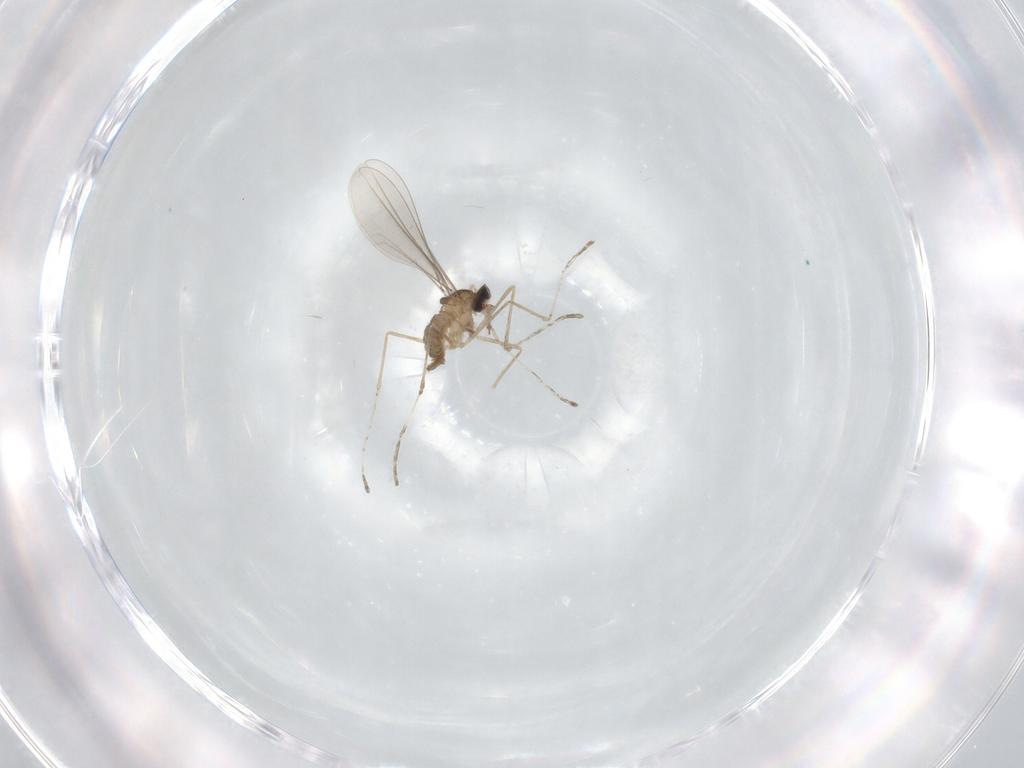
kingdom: Animalia
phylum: Arthropoda
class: Insecta
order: Diptera
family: Cecidomyiidae
